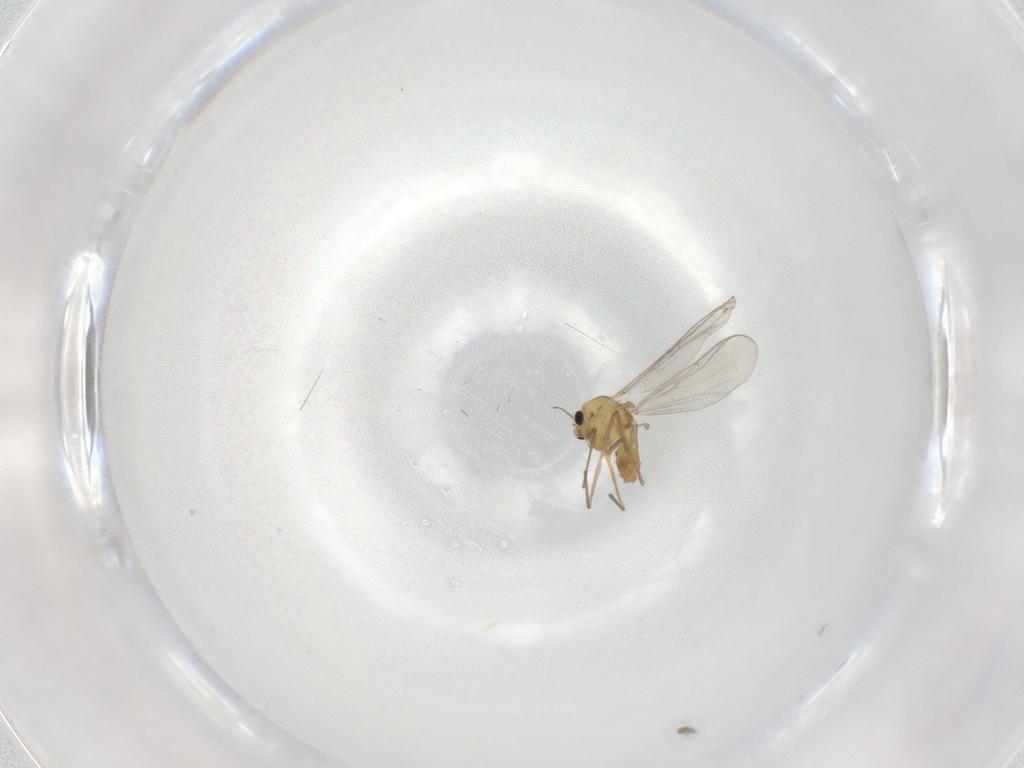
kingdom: Animalia
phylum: Arthropoda
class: Insecta
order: Diptera
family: Chironomidae
